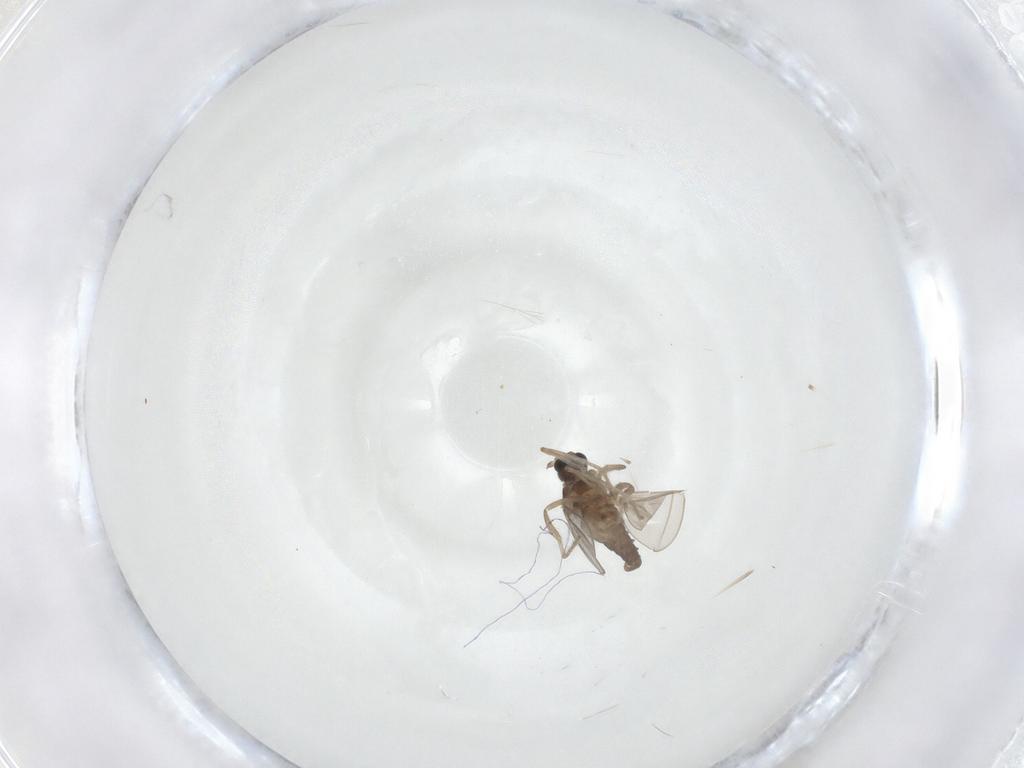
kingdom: Animalia
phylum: Arthropoda
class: Insecta
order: Diptera
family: Cecidomyiidae
